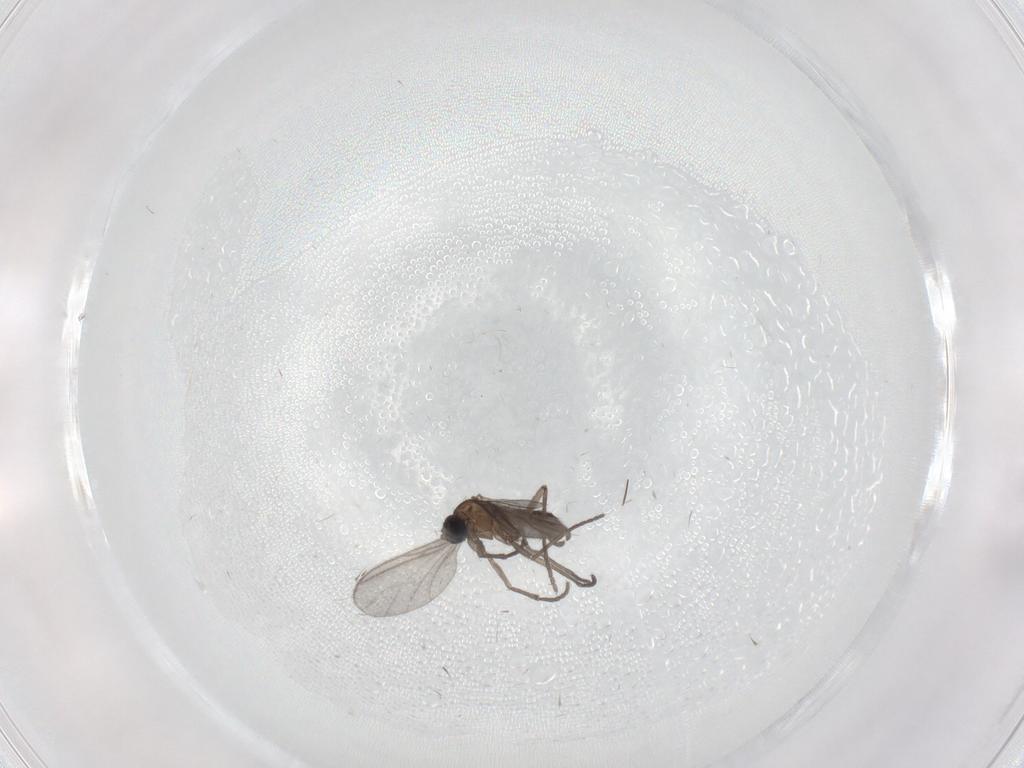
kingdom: Animalia
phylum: Arthropoda
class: Insecta
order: Diptera
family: Sciaridae
